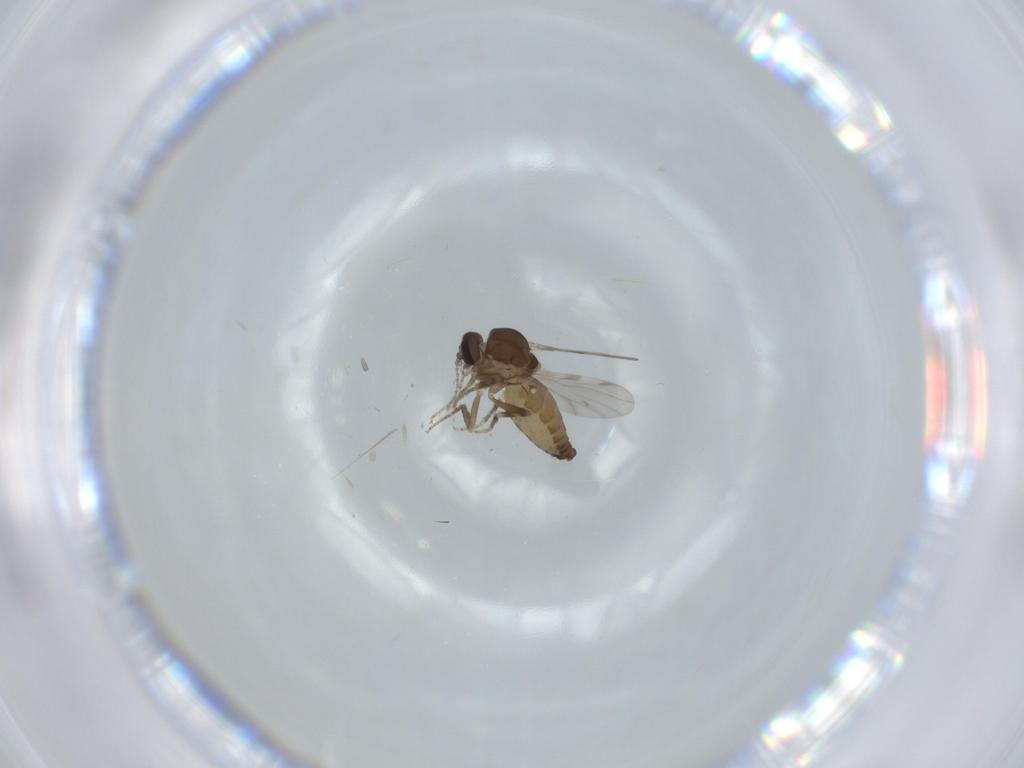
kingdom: Animalia
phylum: Arthropoda
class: Insecta
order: Diptera
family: Ceratopogonidae
